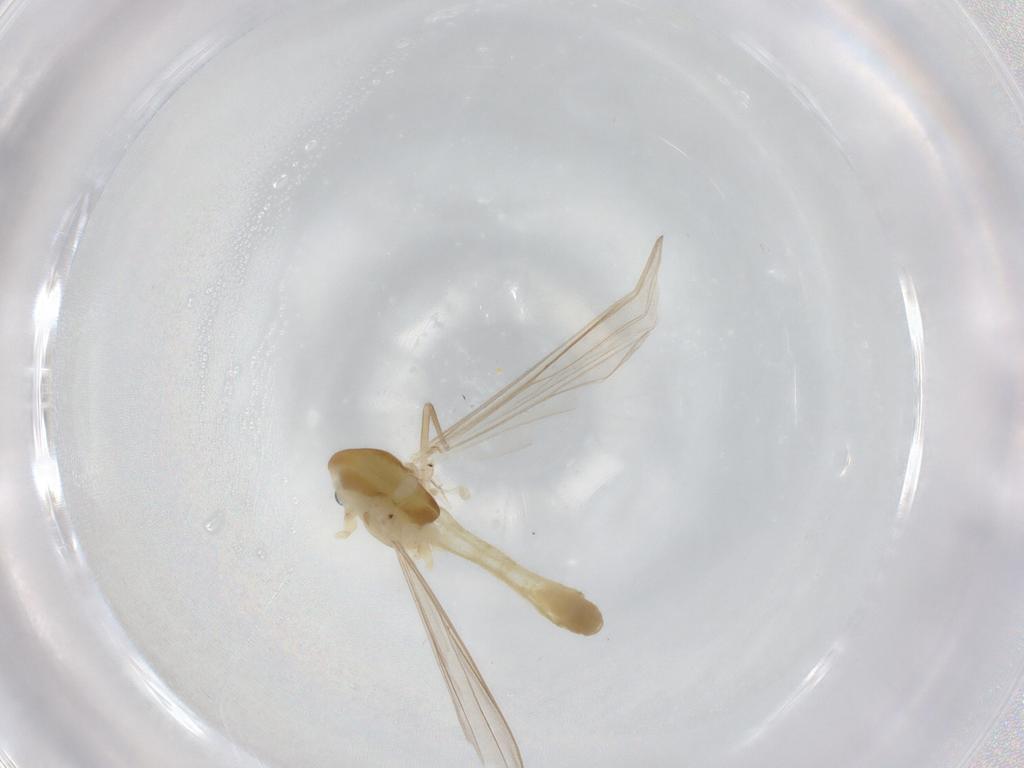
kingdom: Animalia
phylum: Arthropoda
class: Insecta
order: Diptera
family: Chironomidae
